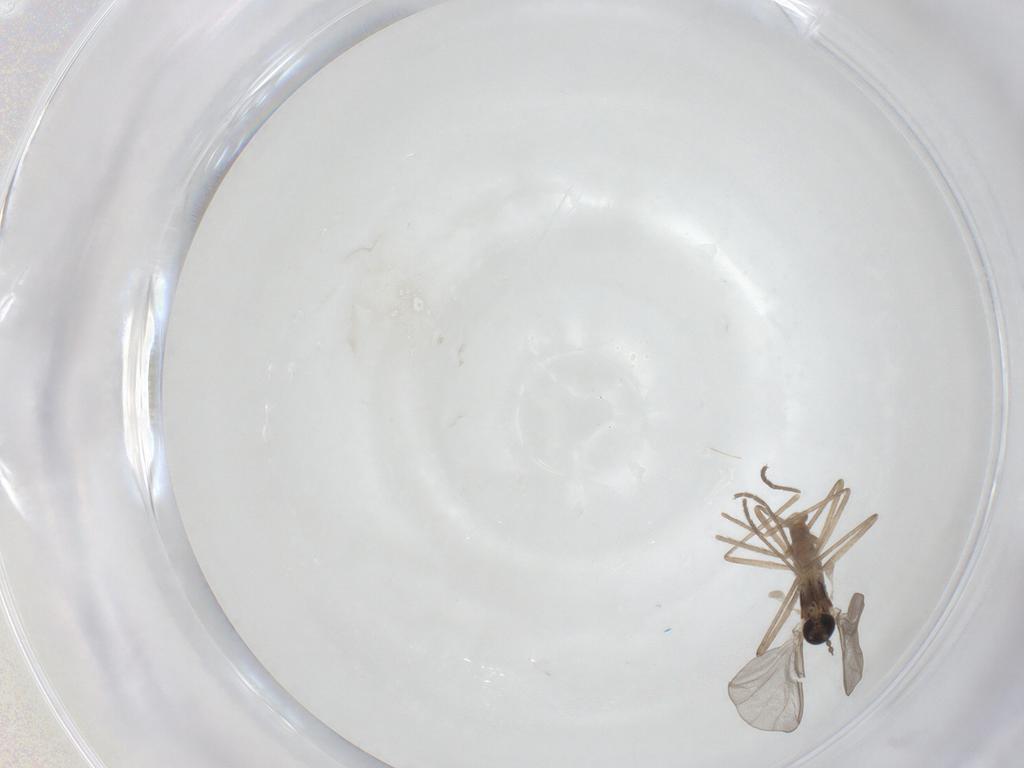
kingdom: Animalia
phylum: Arthropoda
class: Insecta
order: Diptera
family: Cecidomyiidae
